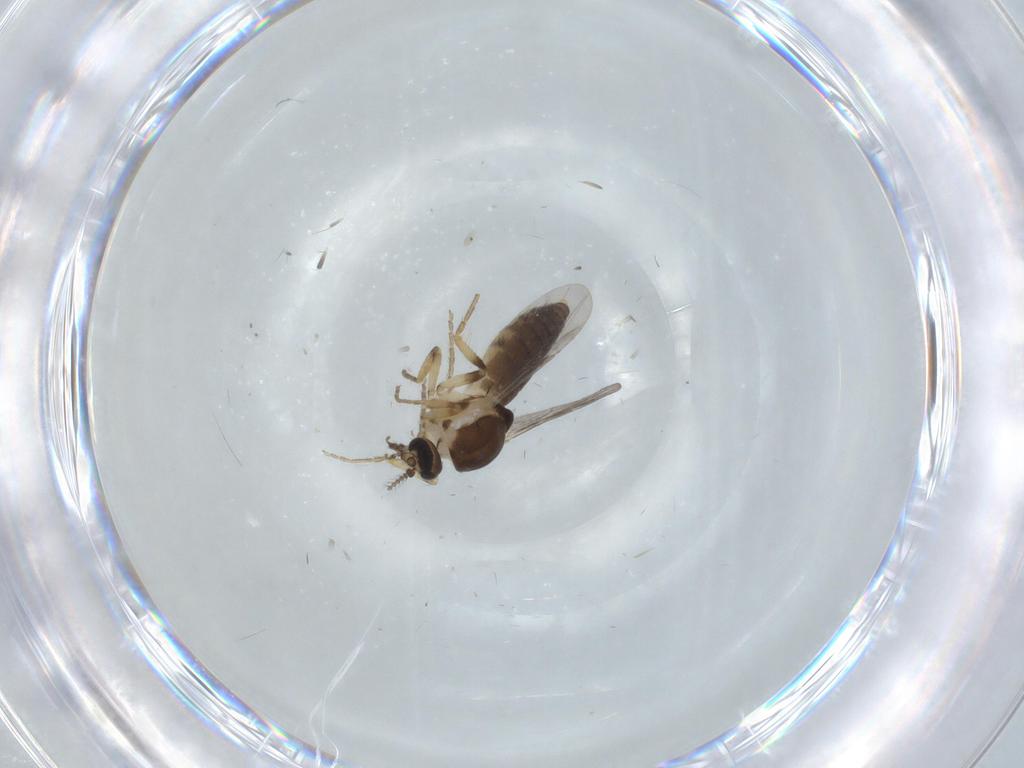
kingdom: Animalia
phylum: Arthropoda
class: Insecta
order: Diptera
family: Ceratopogonidae
